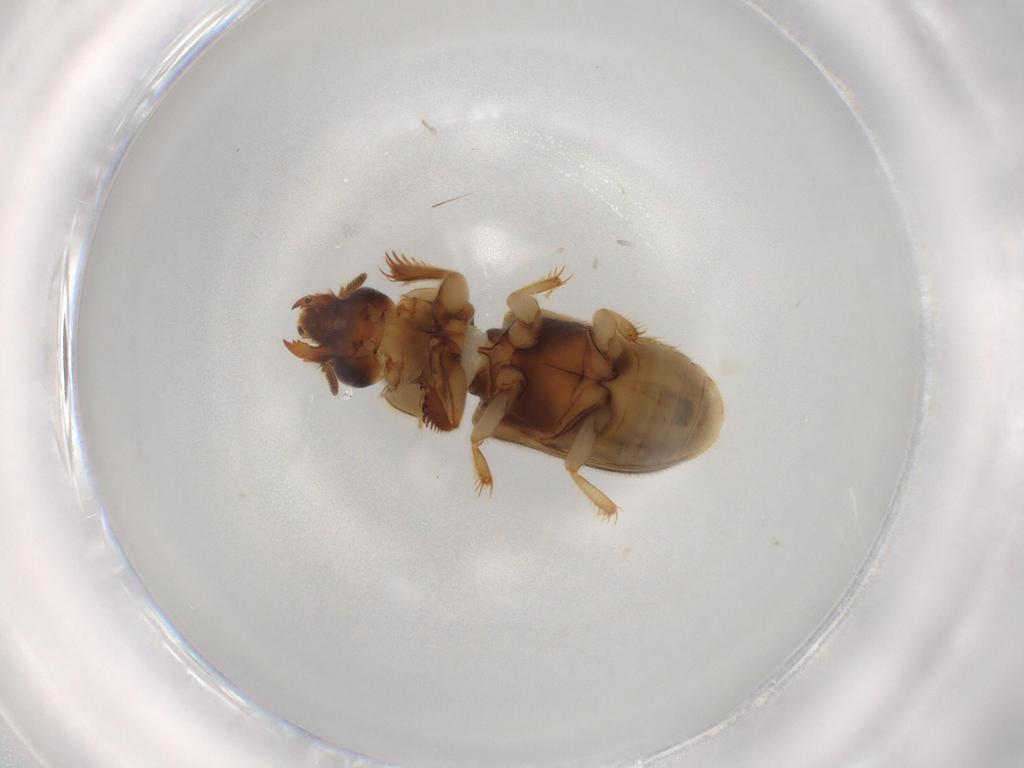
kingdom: Animalia
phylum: Arthropoda
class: Insecta
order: Coleoptera
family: Heteroceridae
